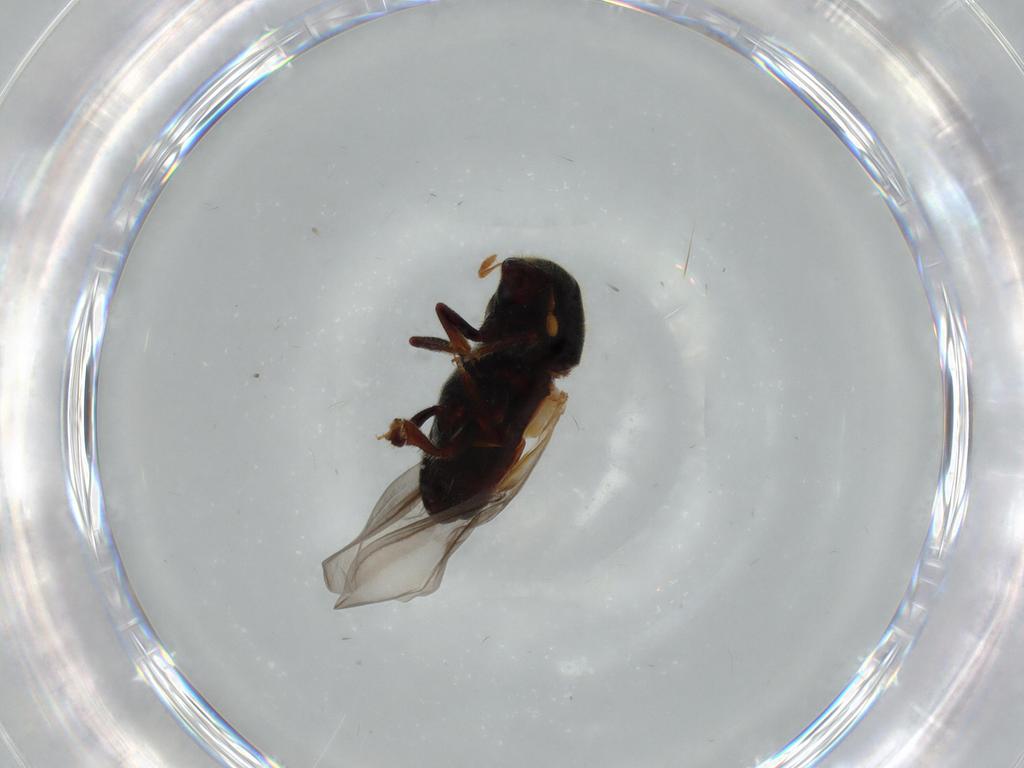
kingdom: Animalia
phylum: Arthropoda
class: Insecta
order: Coleoptera
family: Curculionidae
